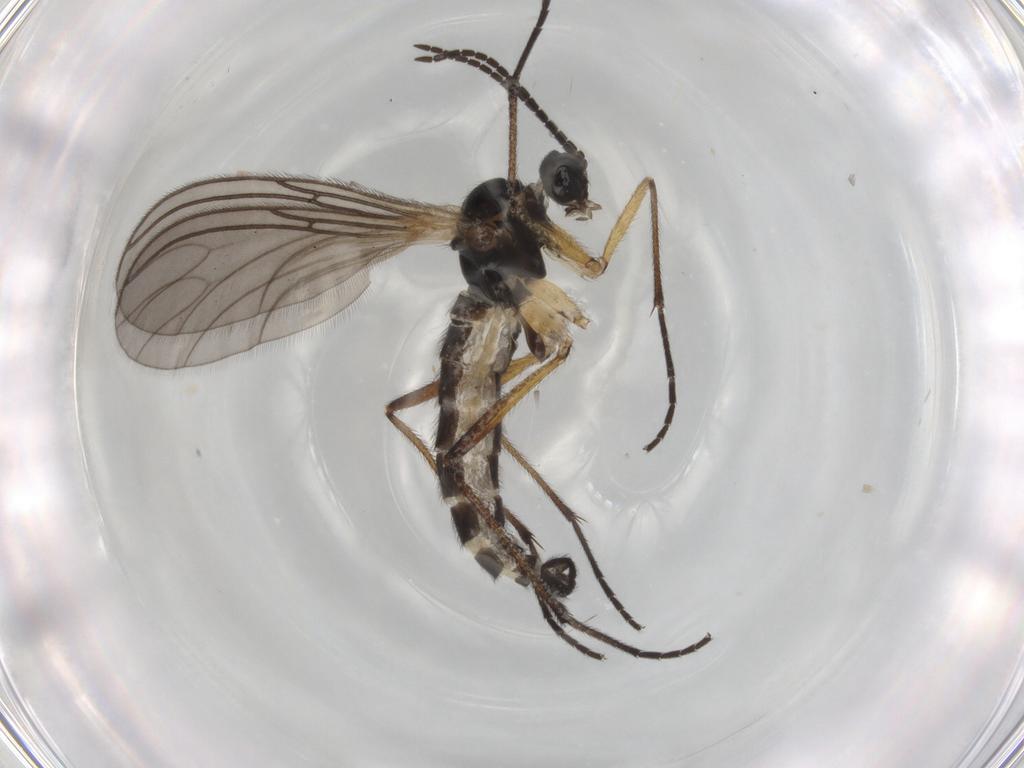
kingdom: Animalia
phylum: Arthropoda
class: Insecta
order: Diptera
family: Sciaridae
